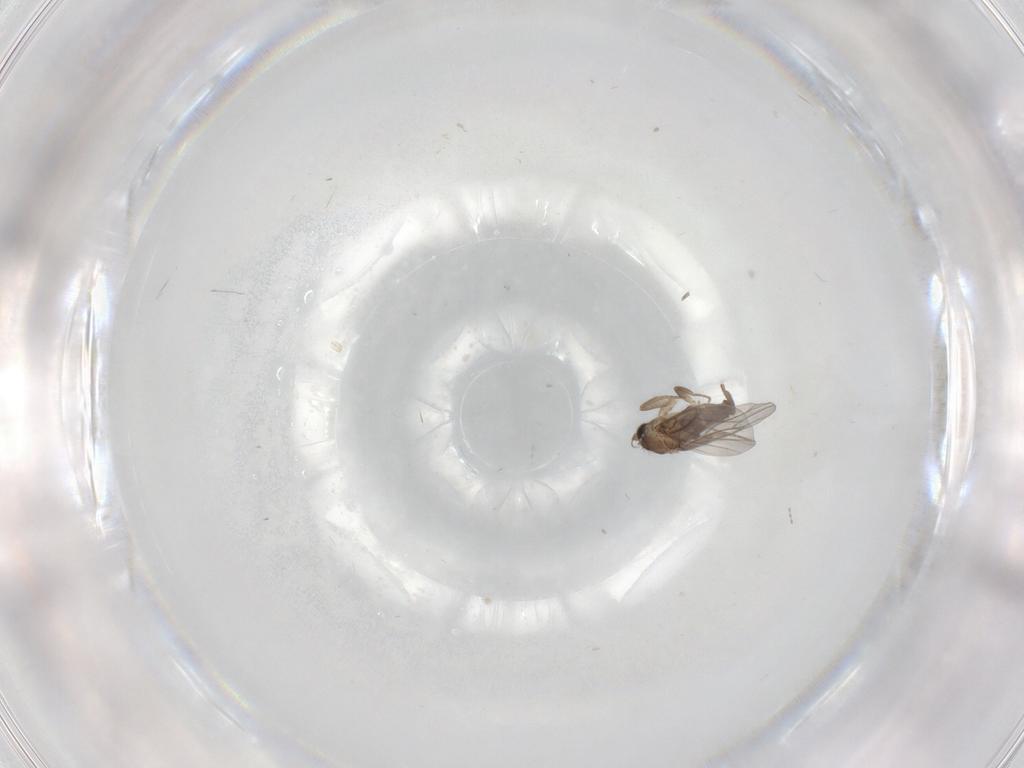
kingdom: Animalia
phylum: Arthropoda
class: Insecta
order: Diptera
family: Cecidomyiidae
